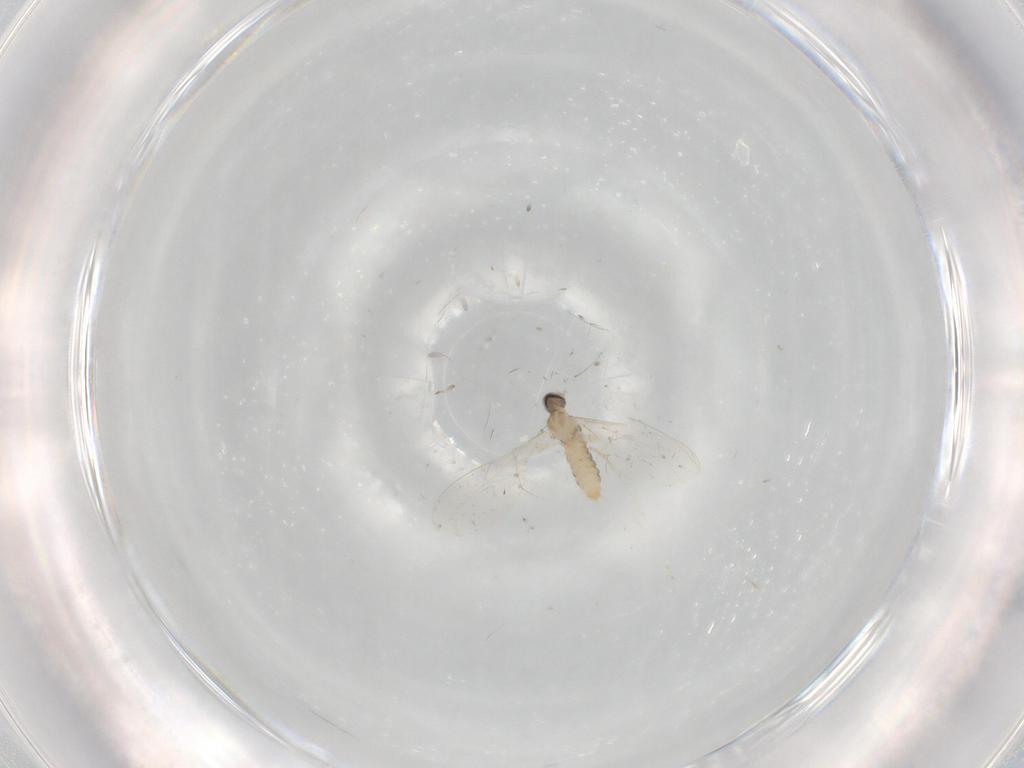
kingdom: Animalia
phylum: Arthropoda
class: Insecta
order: Diptera
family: Cecidomyiidae
